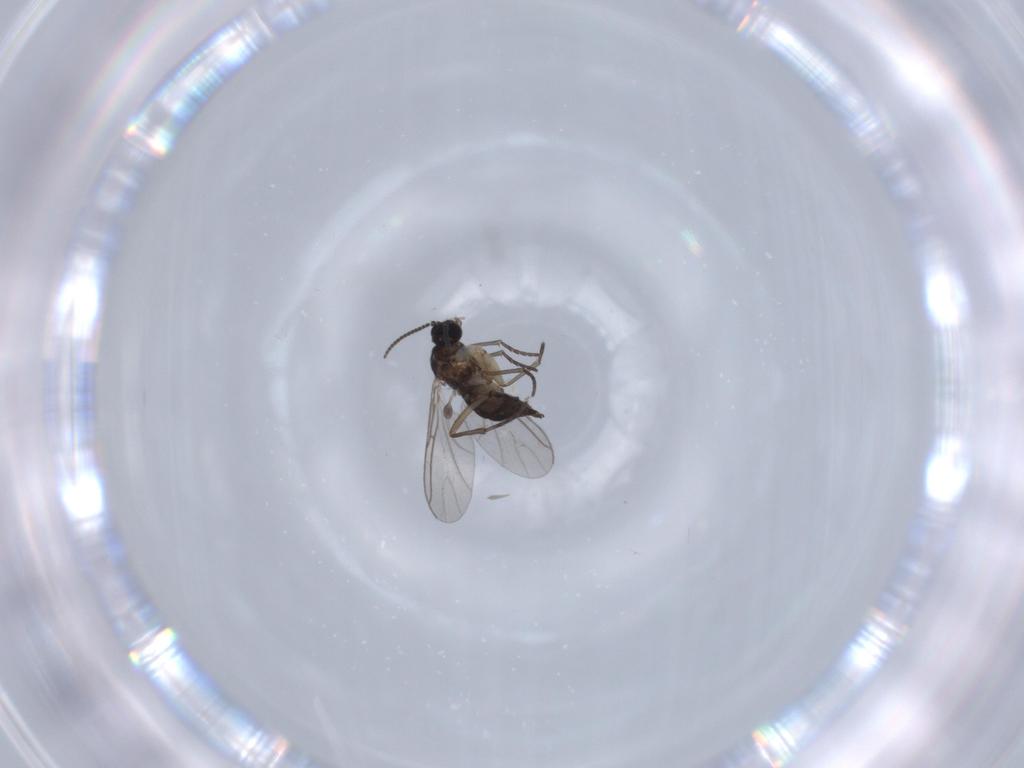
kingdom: Animalia
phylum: Arthropoda
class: Insecta
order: Diptera
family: Sciaridae
